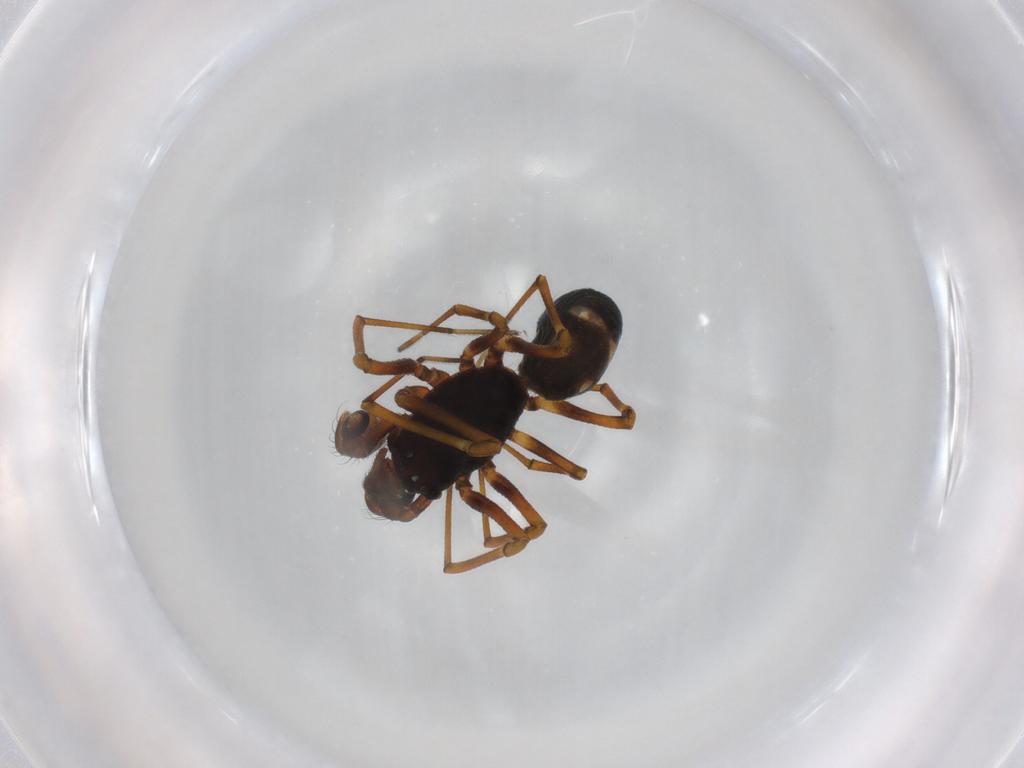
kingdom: Animalia
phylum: Arthropoda
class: Arachnida
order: Araneae
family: Linyphiidae
